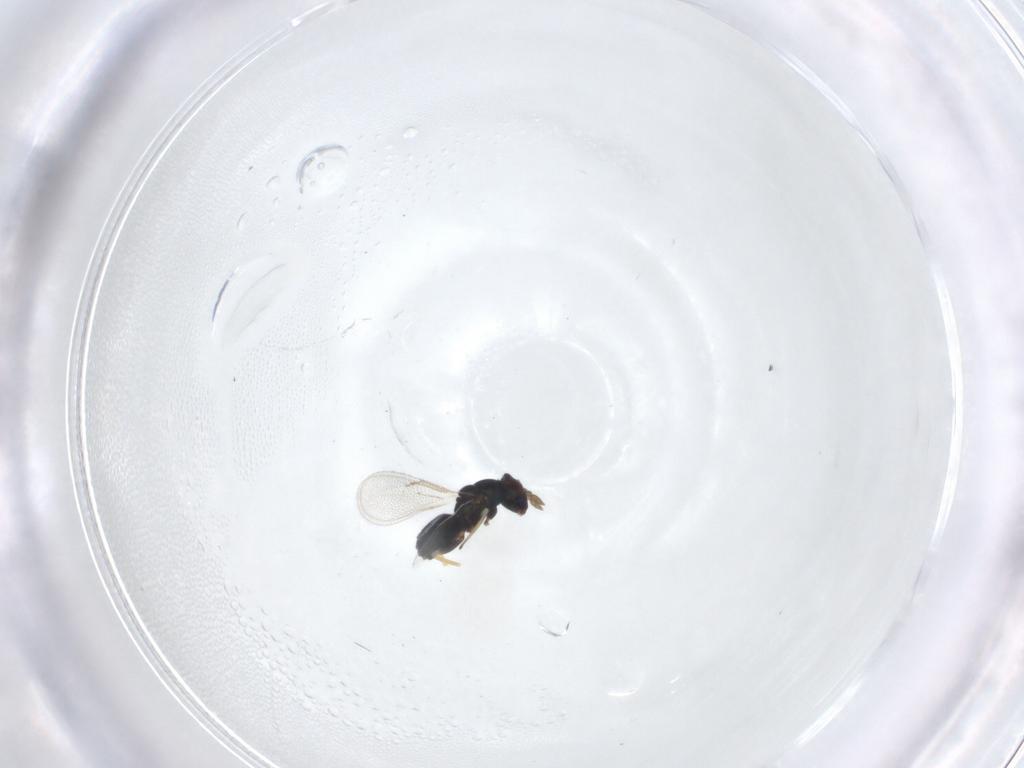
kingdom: Animalia
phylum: Arthropoda
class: Insecta
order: Hymenoptera
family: Eulophidae
